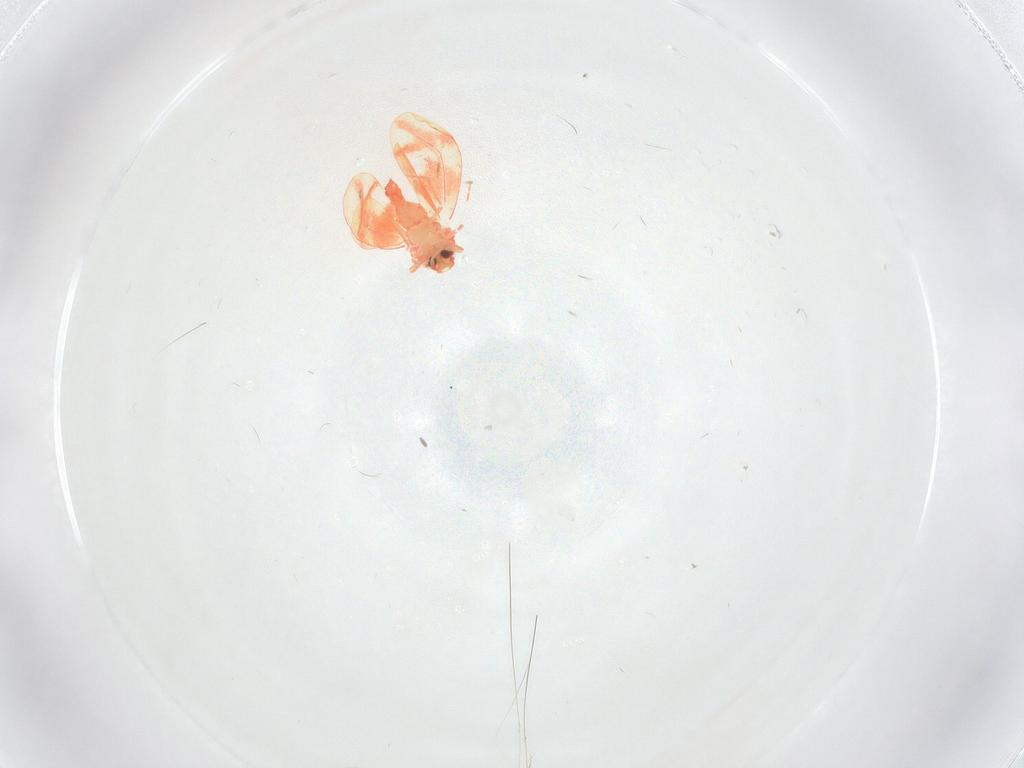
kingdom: Animalia
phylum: Arthropoda
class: Insecta
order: Hemiptera
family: Aleyrodidae
